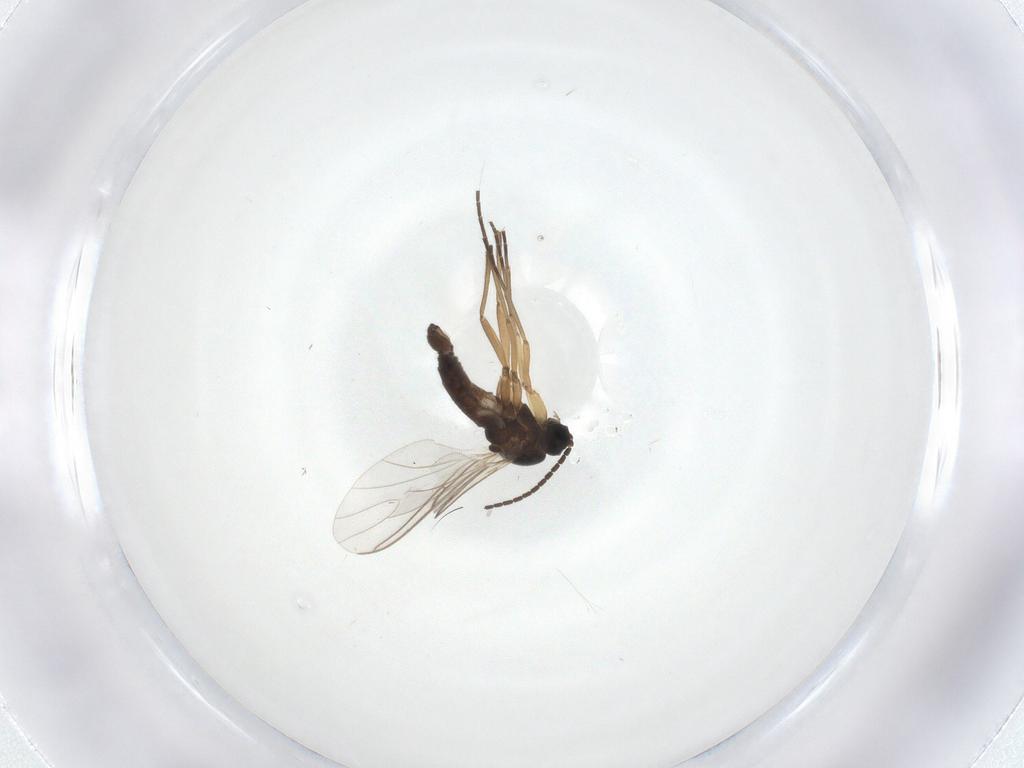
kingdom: Animalia
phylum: Arthropoda
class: Insecta
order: Diptera
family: Sciaridae
